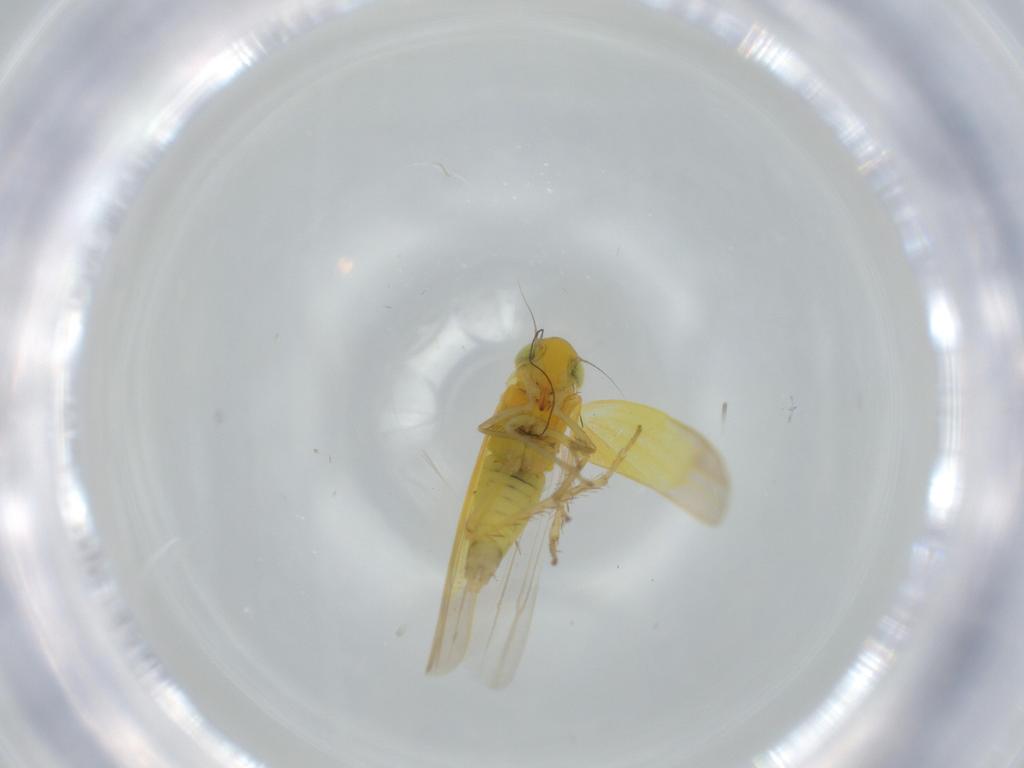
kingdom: Animalia
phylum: Arthropoda
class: Insecta
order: Hemiptera
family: Cicadellidae
